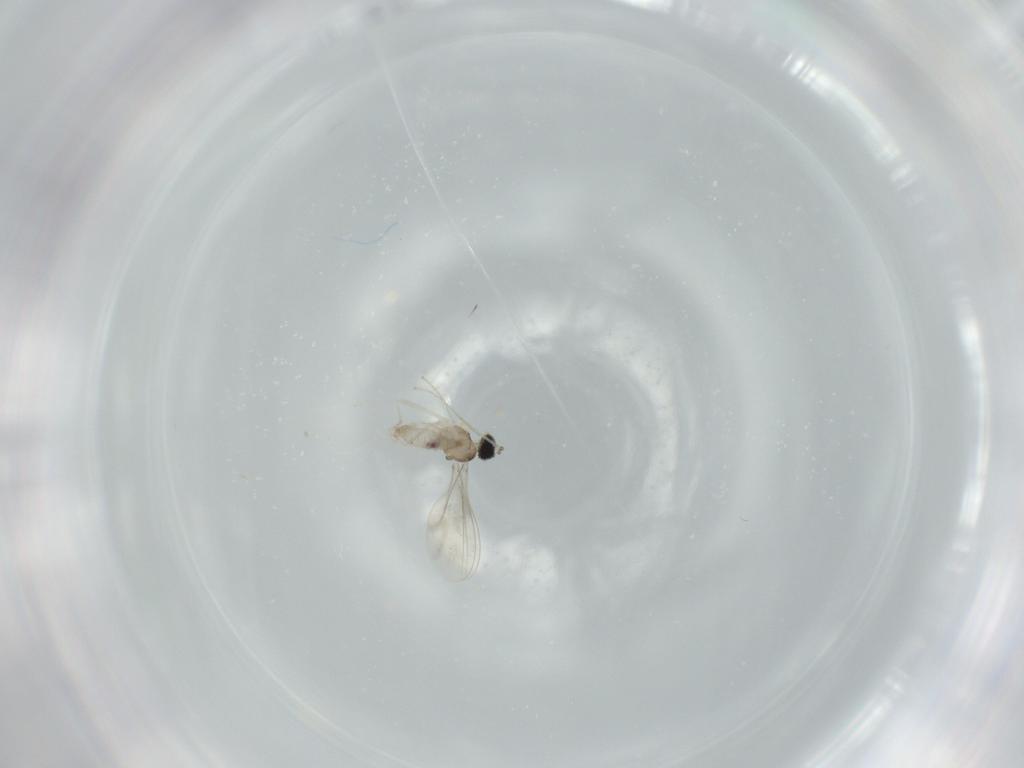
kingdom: Animalia
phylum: Arthropoda
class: Insecta
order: Diptera
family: Cecidomyiidae
